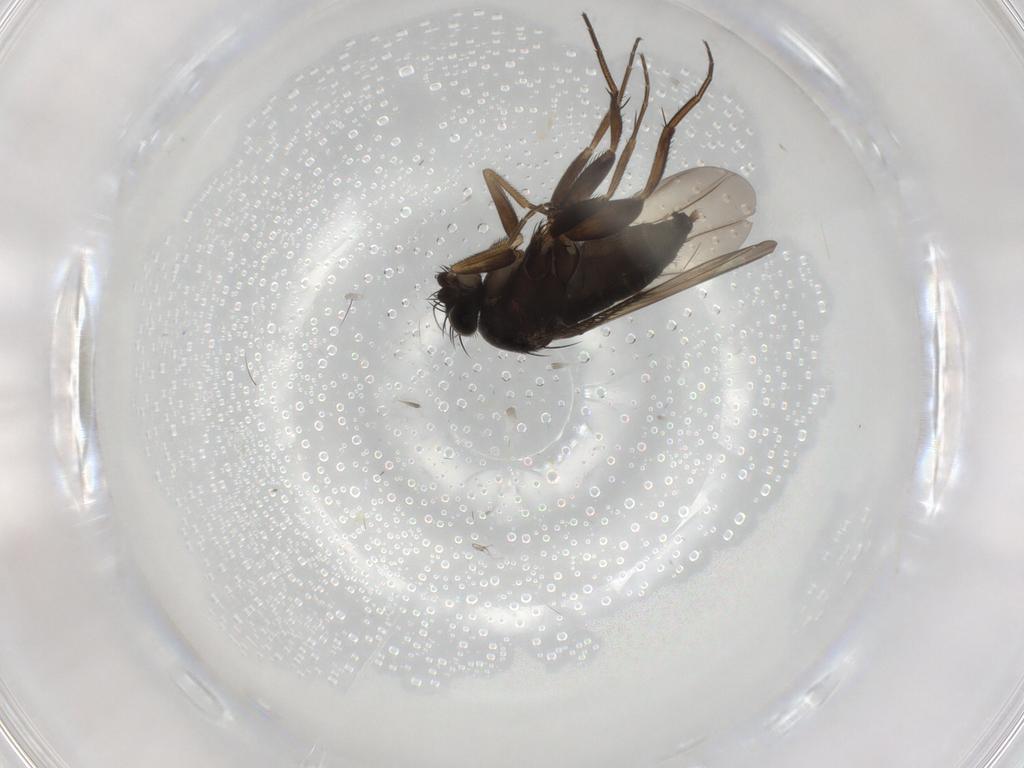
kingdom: Animalia
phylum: Arthropoda
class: Insecta
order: Diptera
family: Phoridae
